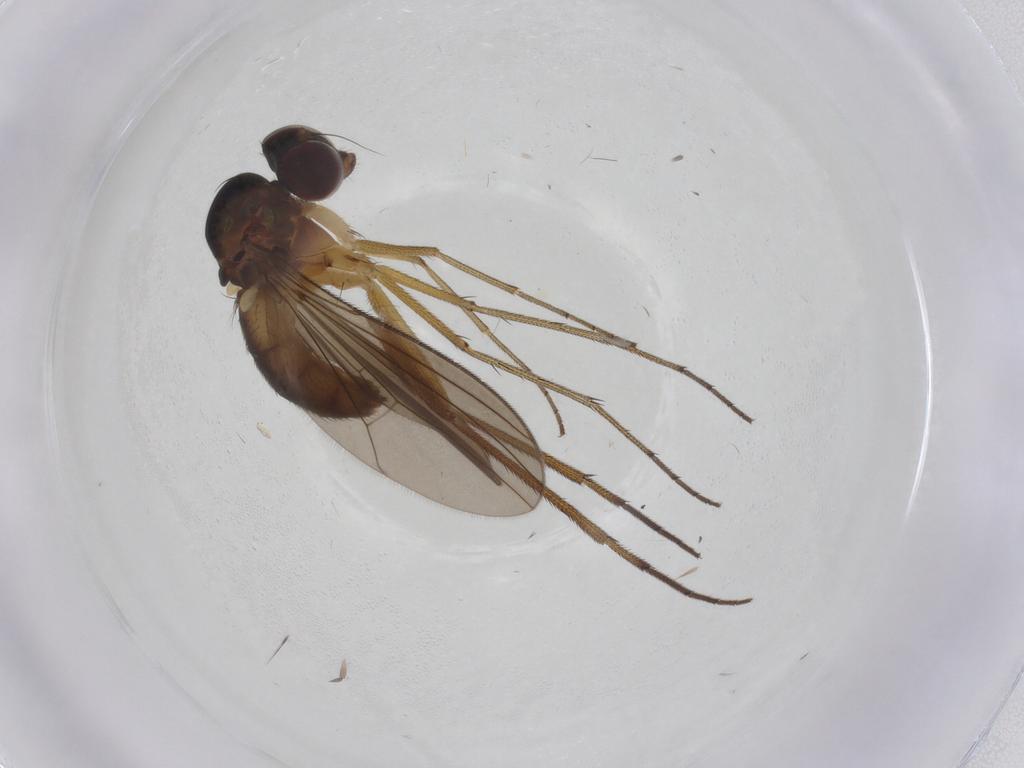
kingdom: Animalia
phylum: Arthropoda
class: Insecta
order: Diptera
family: Dolichopodidae
